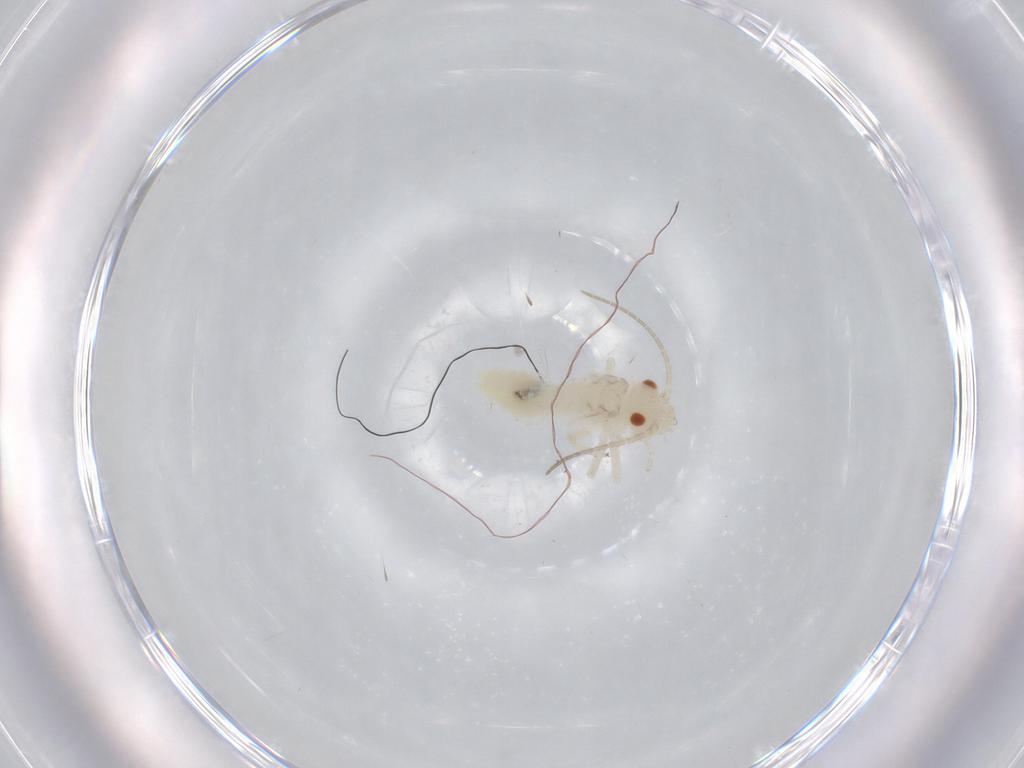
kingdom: Animalia
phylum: Arthropoda
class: Insecta
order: Psocodea
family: Caeciliusidae
